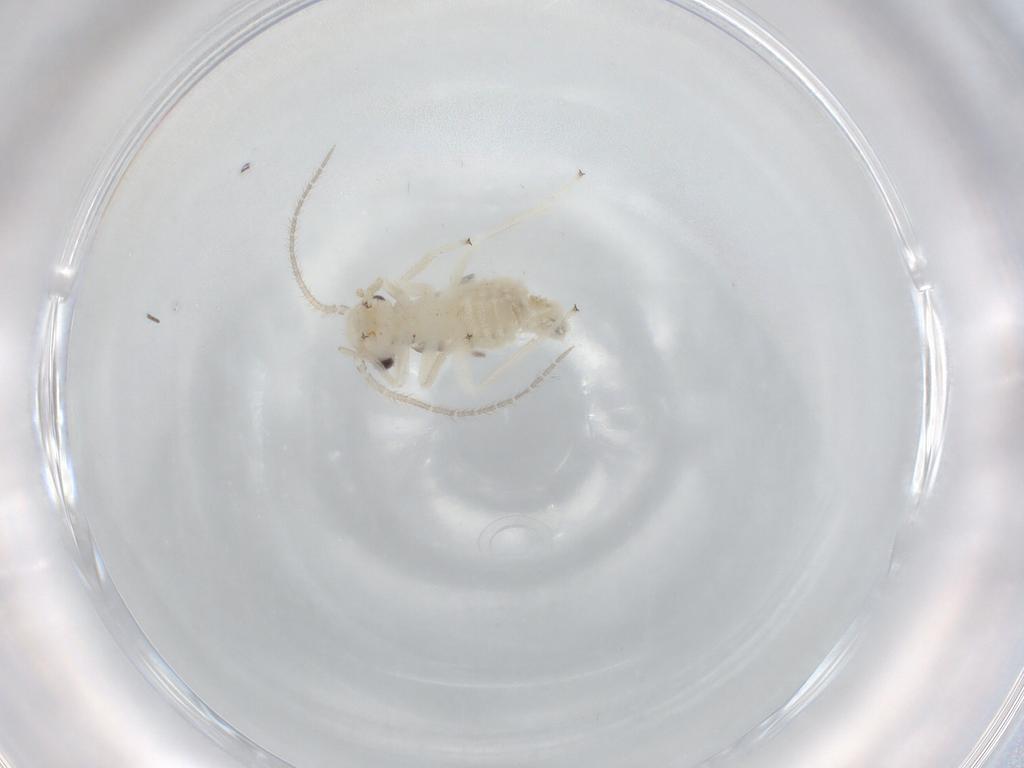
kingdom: Animalia
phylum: Arthropoda
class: Insecta
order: Psocodea
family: Amphipsocidae
